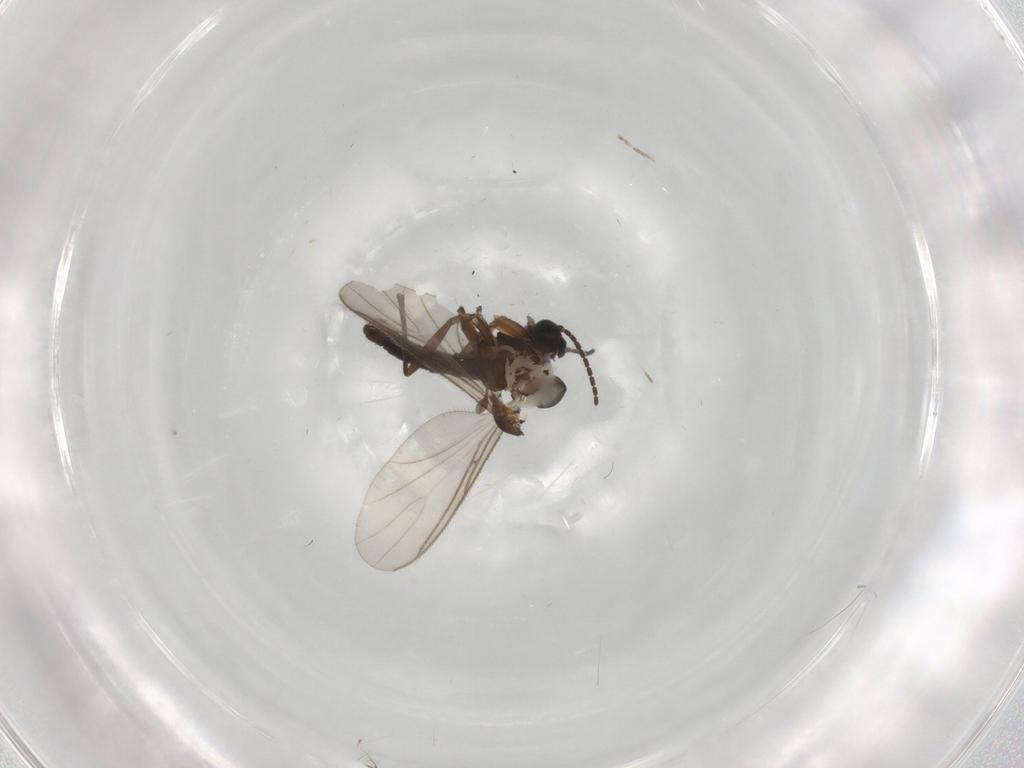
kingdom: Animalia
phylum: Arthropoda
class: Insecta
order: Diptera
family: Sciaridae
